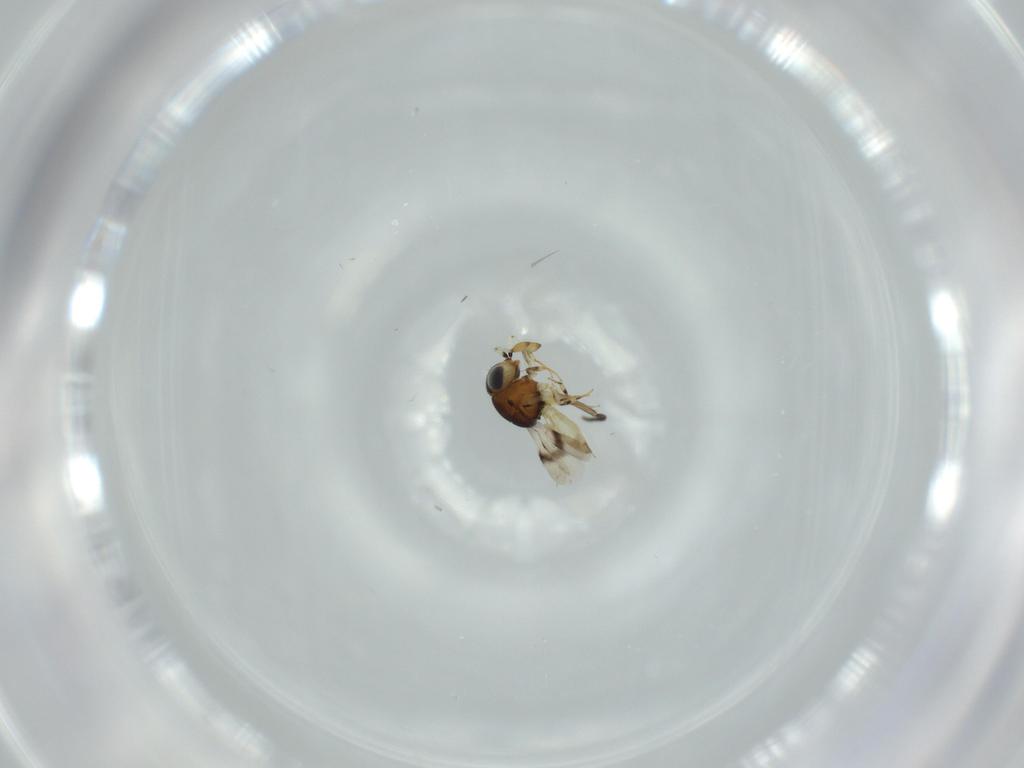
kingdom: Animalia
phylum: Arthropoda
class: Insecta
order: Hymenoptera
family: Scelionidae
